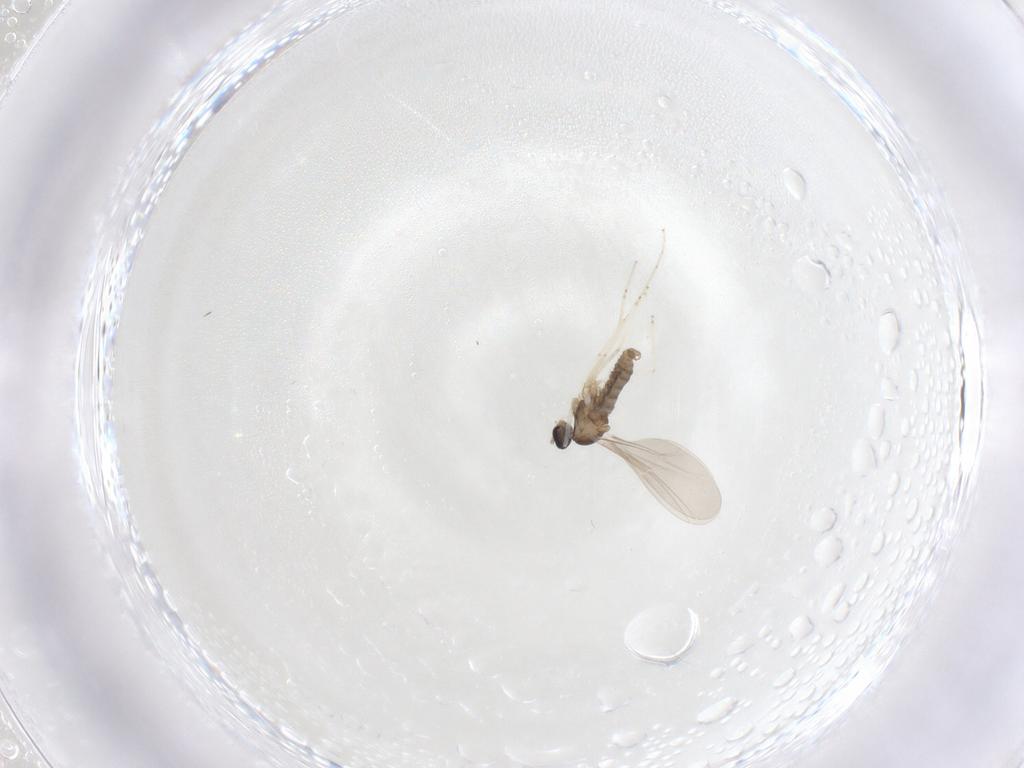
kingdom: Animalia
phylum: Arthropoda
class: Insecta
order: Diptera
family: Cecidomyiidae
